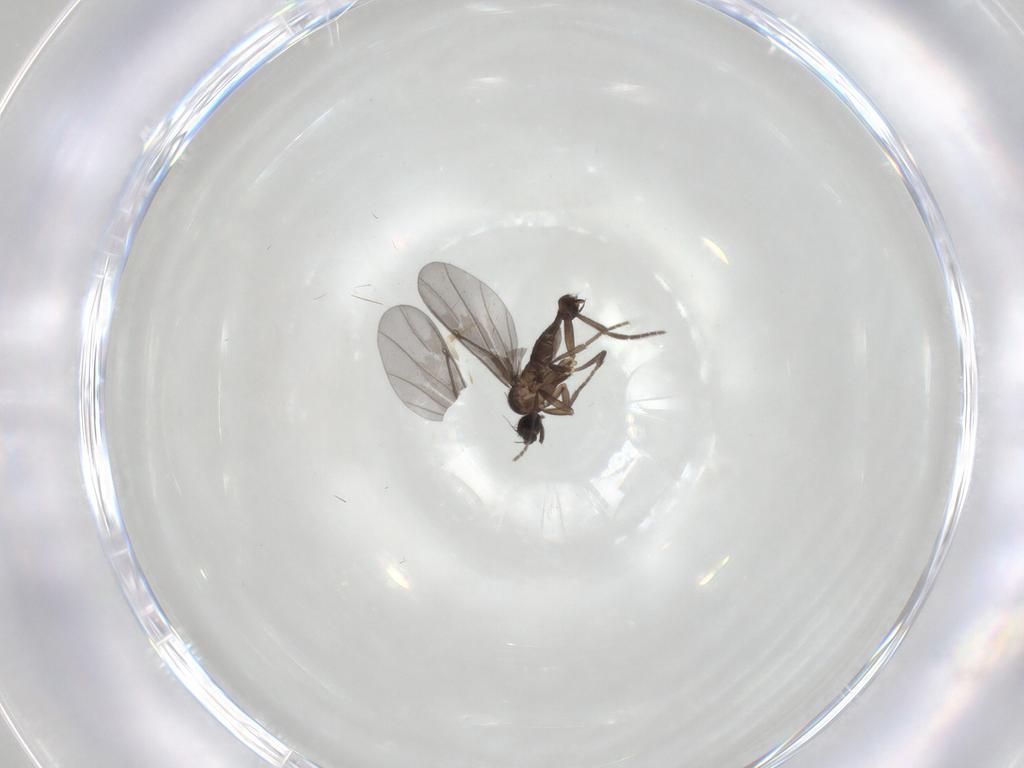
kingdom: Animalia
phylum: Arthropoda
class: Insecta
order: Diptera
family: Phoridae
